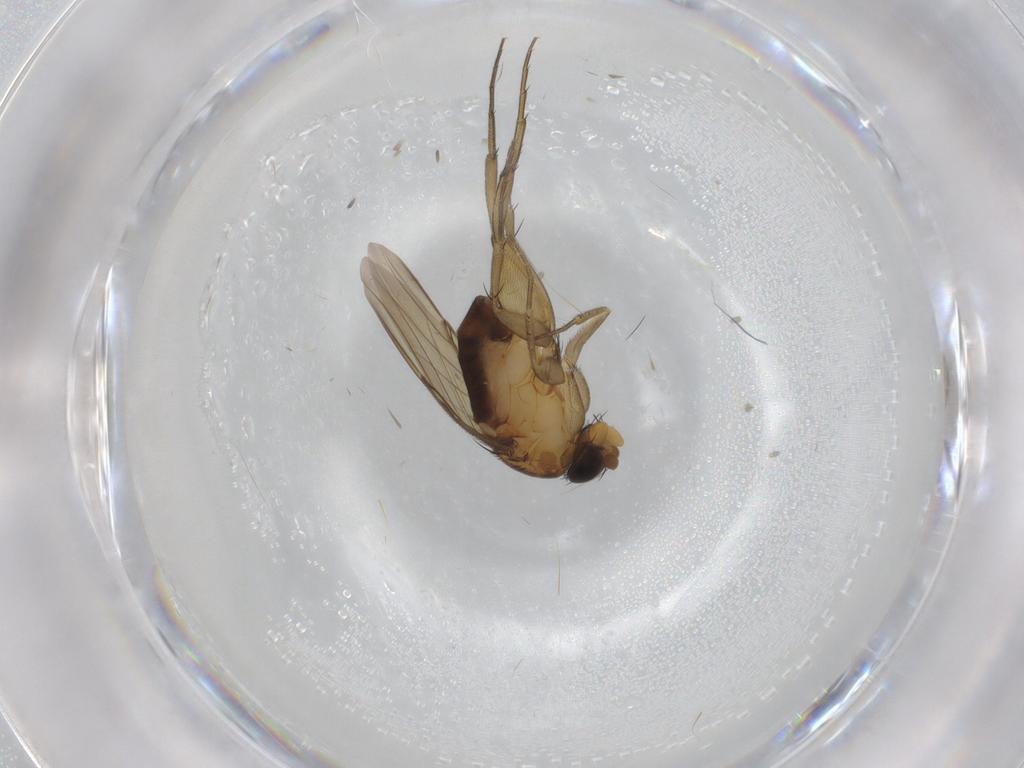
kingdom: Animalia
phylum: Arthropoda
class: Insecta
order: Diptera
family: Phoridae
